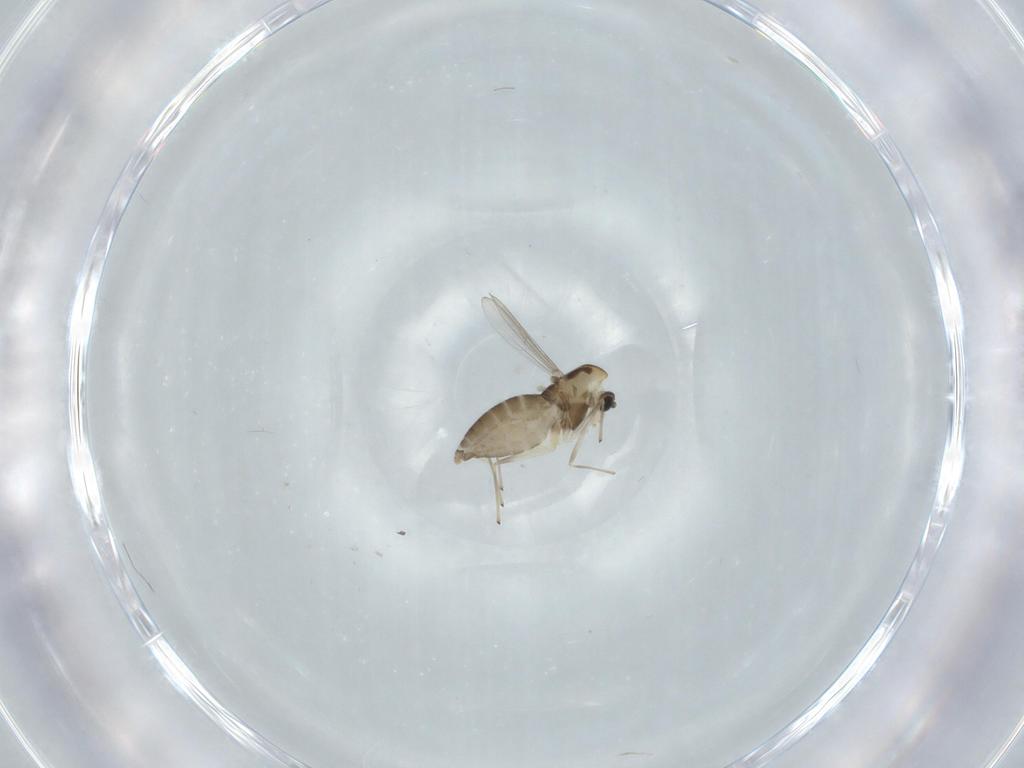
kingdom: Animalia
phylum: Arthropoda
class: Insecta
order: Diptera
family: Chironomidae
